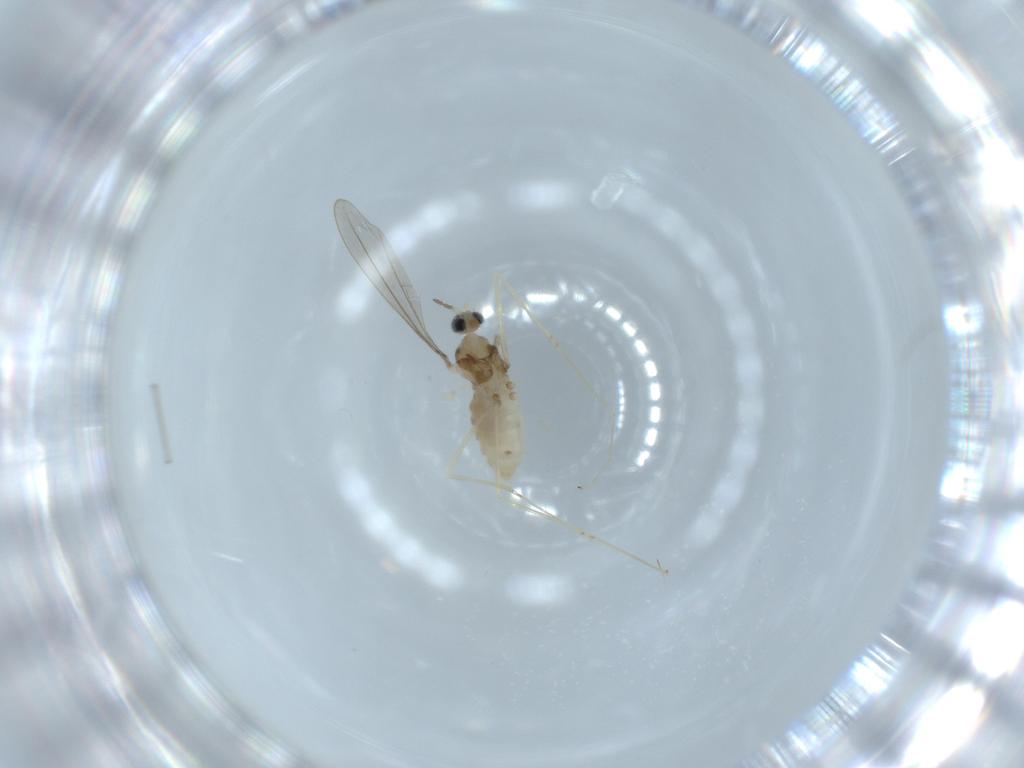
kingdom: Animalia
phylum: Arthropoda
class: Insecta
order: Diptera
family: Cecidomyiidae
